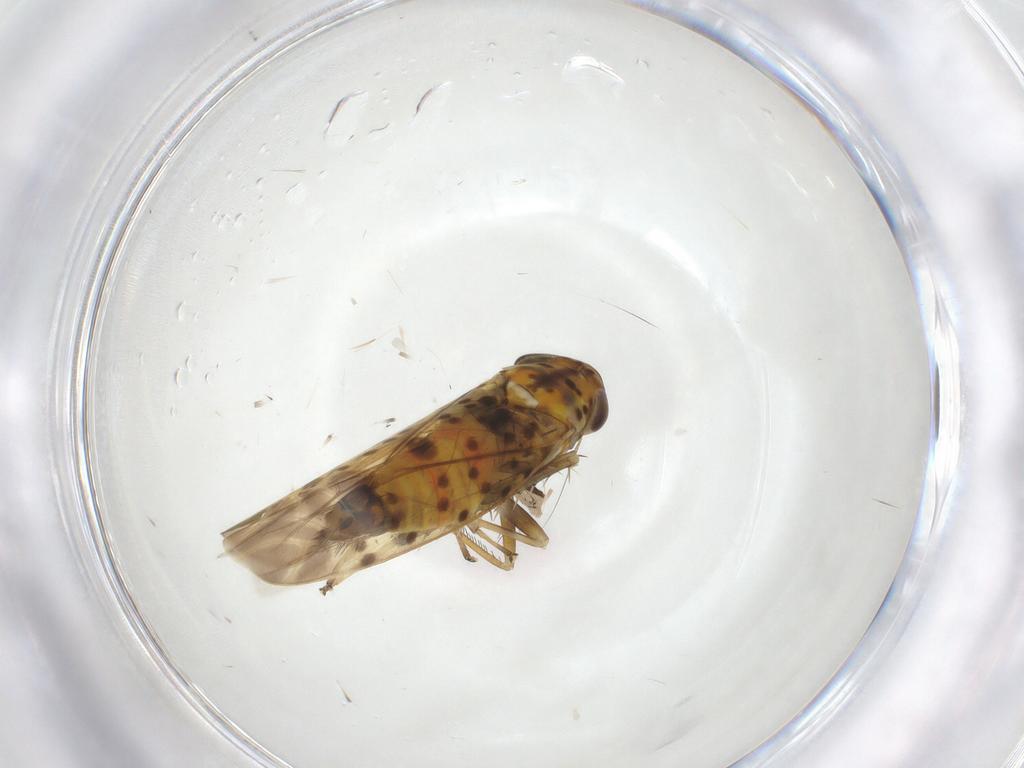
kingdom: Animalia
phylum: Arthropoda
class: Insecta
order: Hemiptera
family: Cicadellidae
